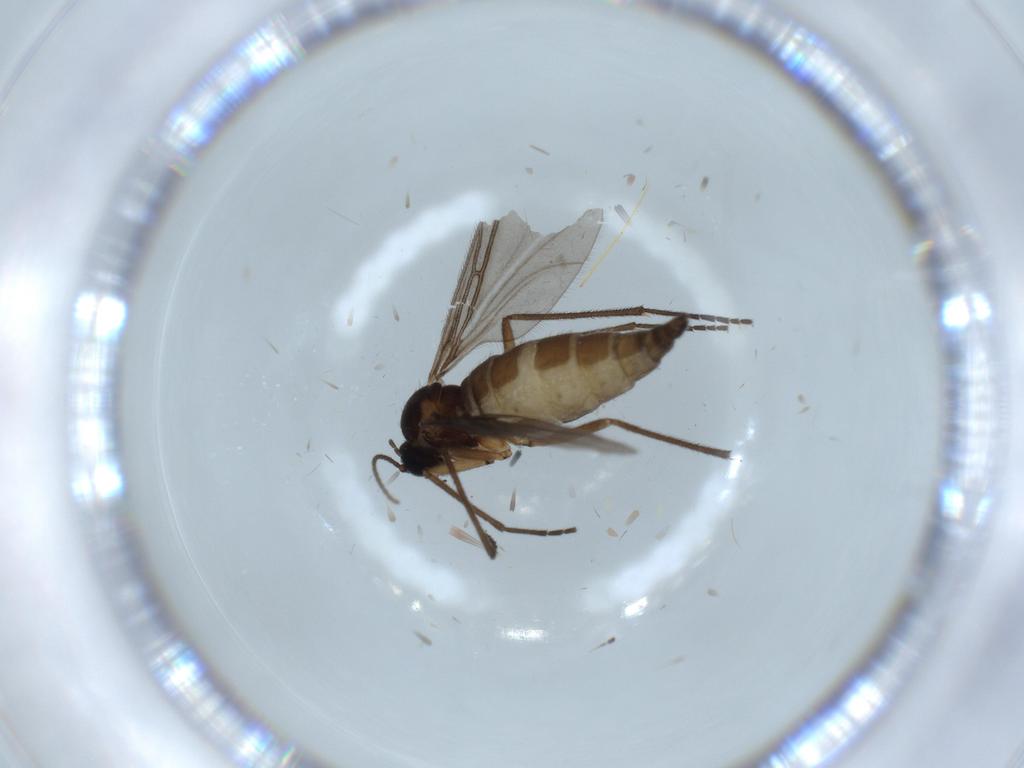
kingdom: Animalia
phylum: Arthropoda
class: Insecta
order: Diptera
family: Sciaridae
